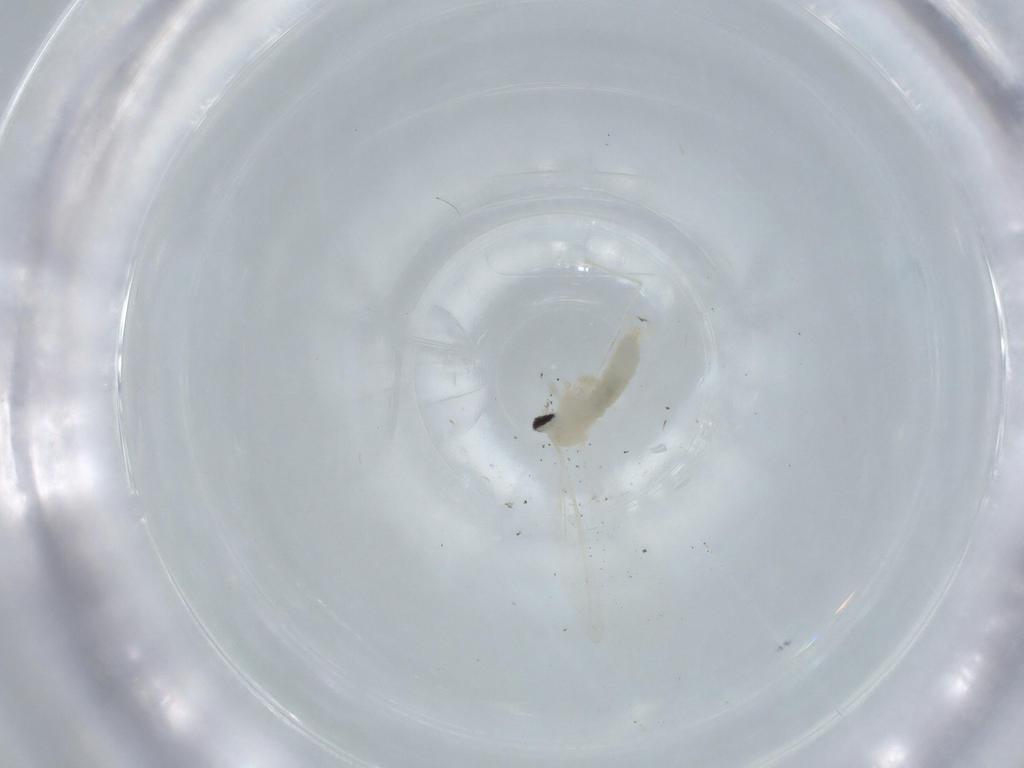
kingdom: Animalia
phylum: Arthropoda
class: Insecta
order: Diptera
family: Cecidomyiidae
